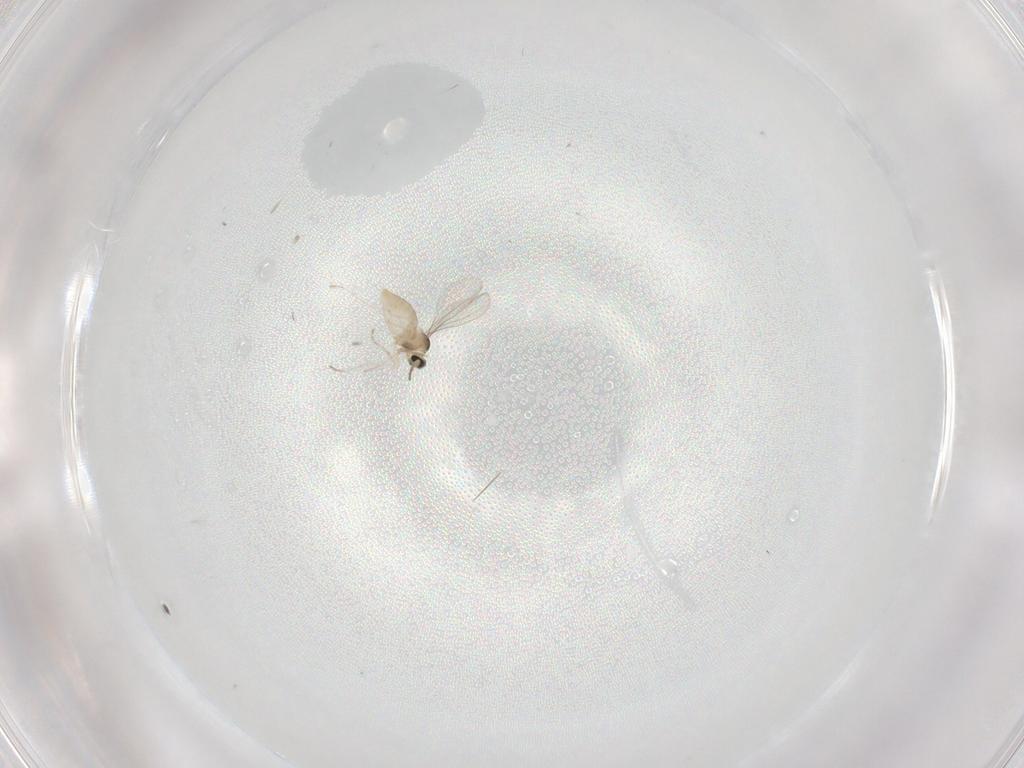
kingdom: Animalia
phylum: Arthropoda
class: Insecta
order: Diptera
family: Cecidomyiidae
